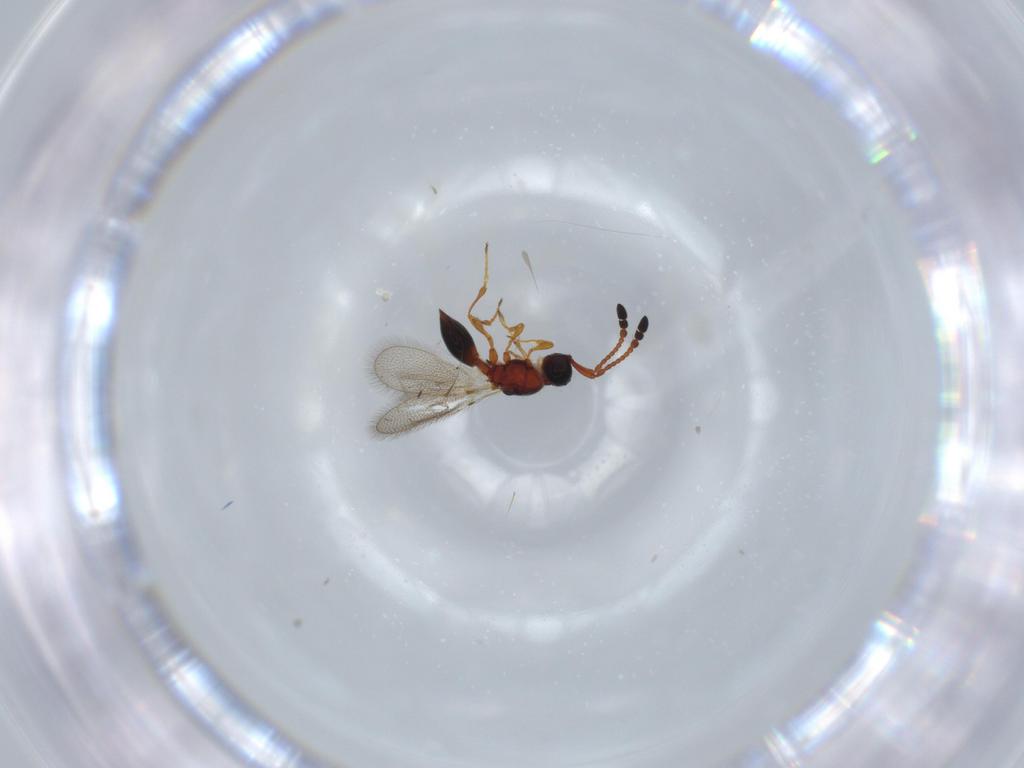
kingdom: Animalia
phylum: Arthropoda
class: Insecta
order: Hymenoptera
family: Diapriidae
